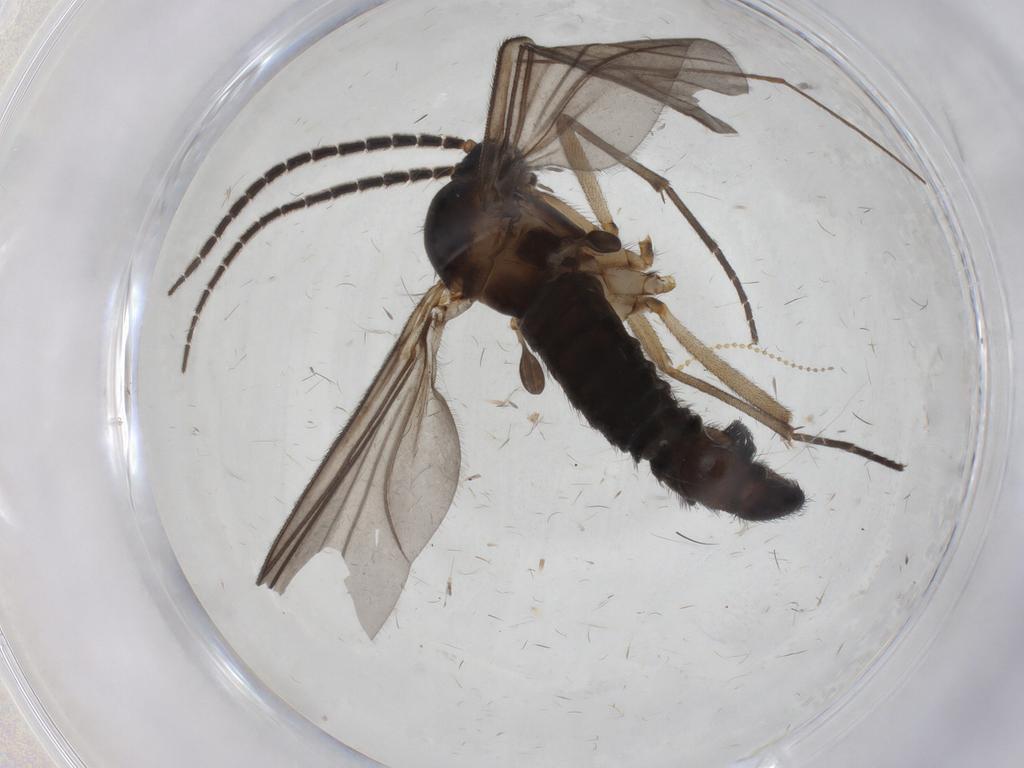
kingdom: Animalia
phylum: Arthropoda
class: Insecta
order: Diptera
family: Sciaridae
